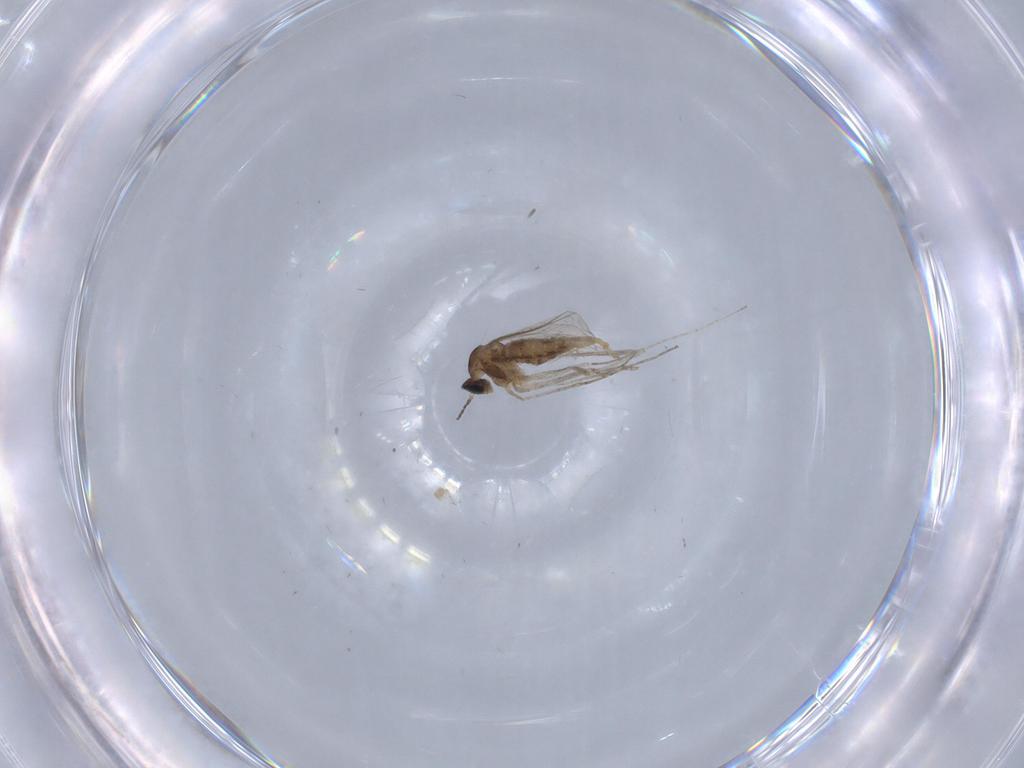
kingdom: Animalia
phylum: Arthropoda
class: Insecta
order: Diptera
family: Cecidomyiidae
